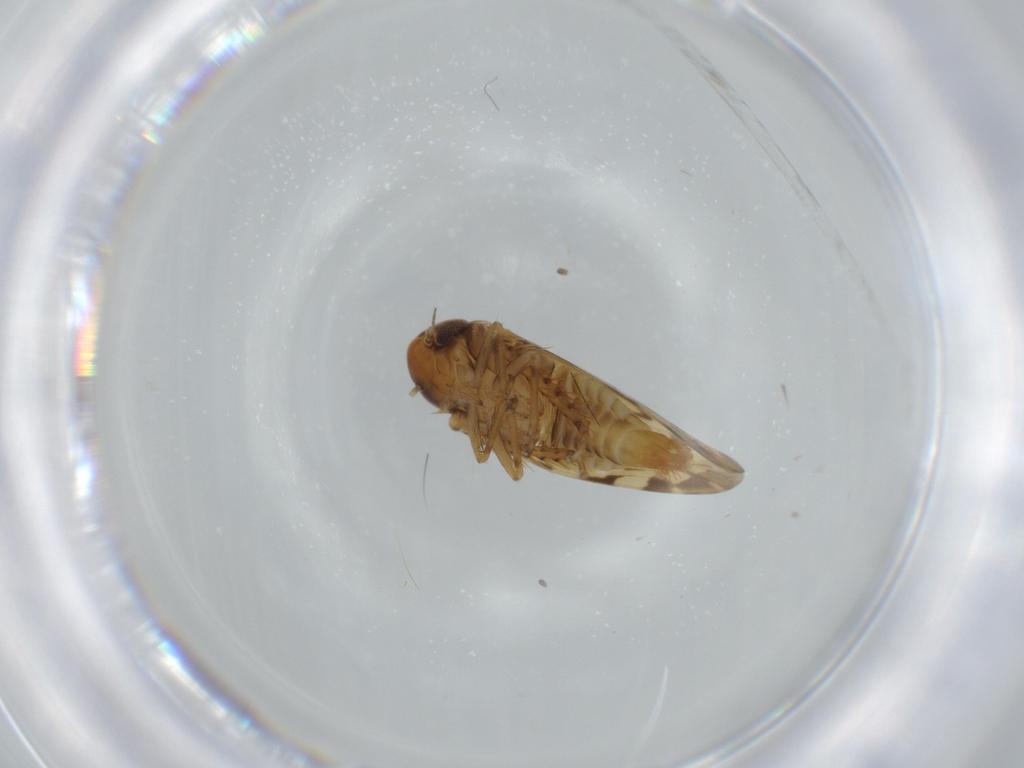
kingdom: Animalia
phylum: Arthropoda
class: Insecta
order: Hemiptera
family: Cicadellidae
